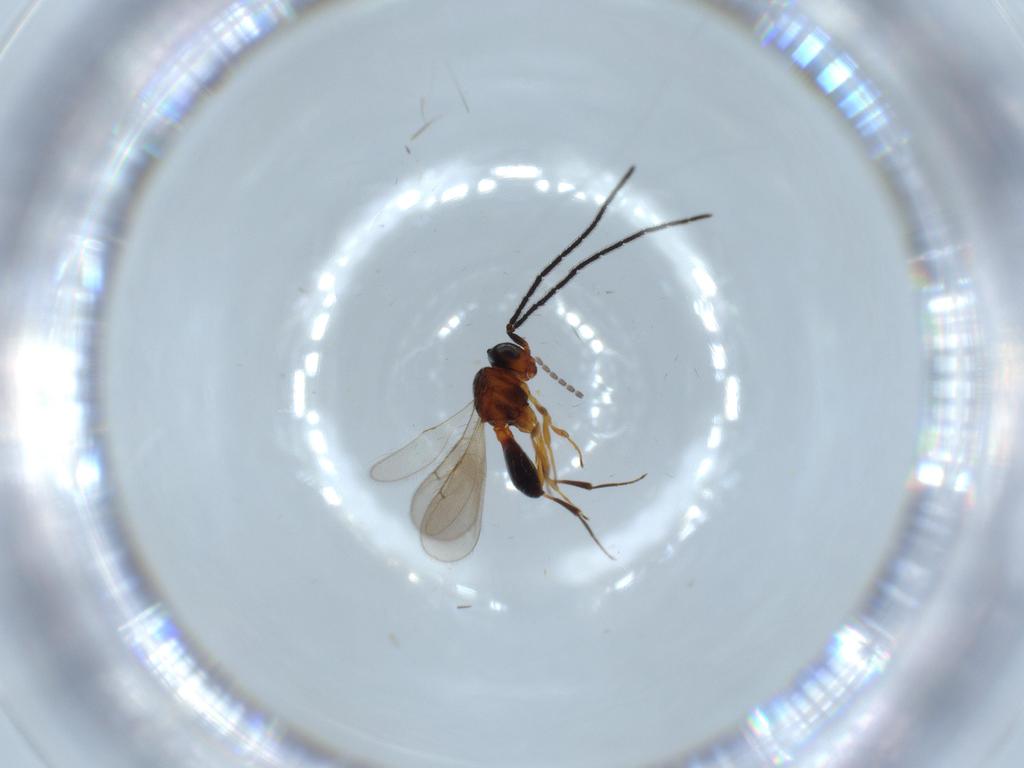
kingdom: Animalia
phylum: Arthropoda
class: Insecta
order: Hymenoptera
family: Scelionidae
